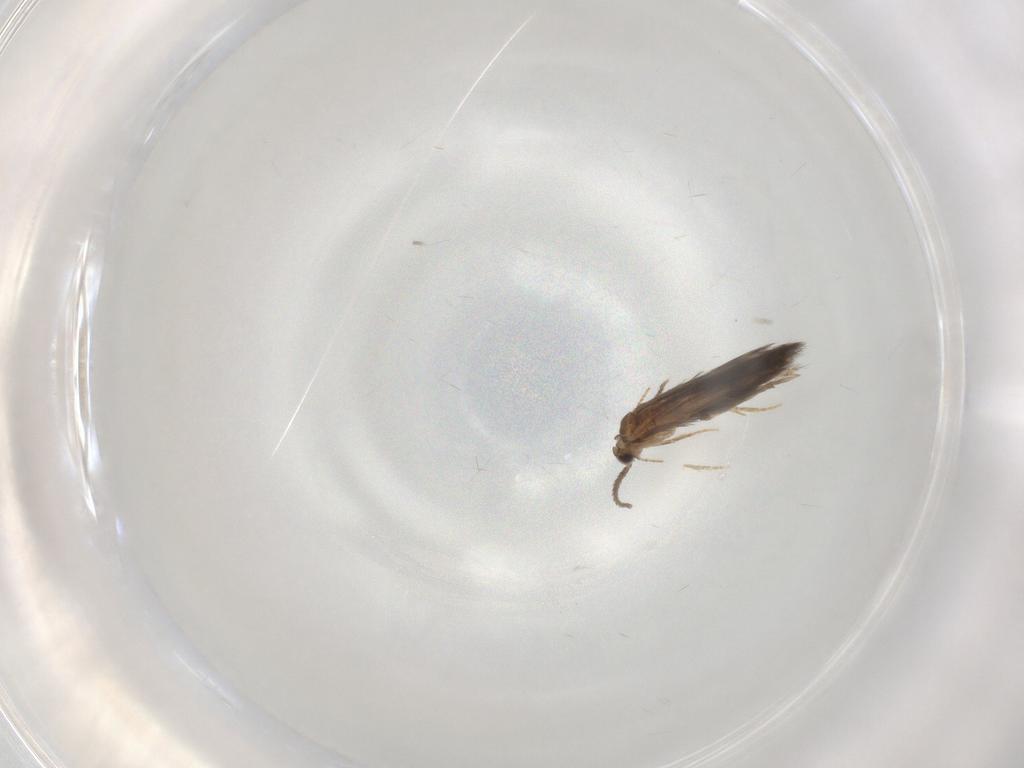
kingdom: Animalia
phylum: Arthropoda
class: Insecta
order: Trichoptera
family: Hydroptilidae
